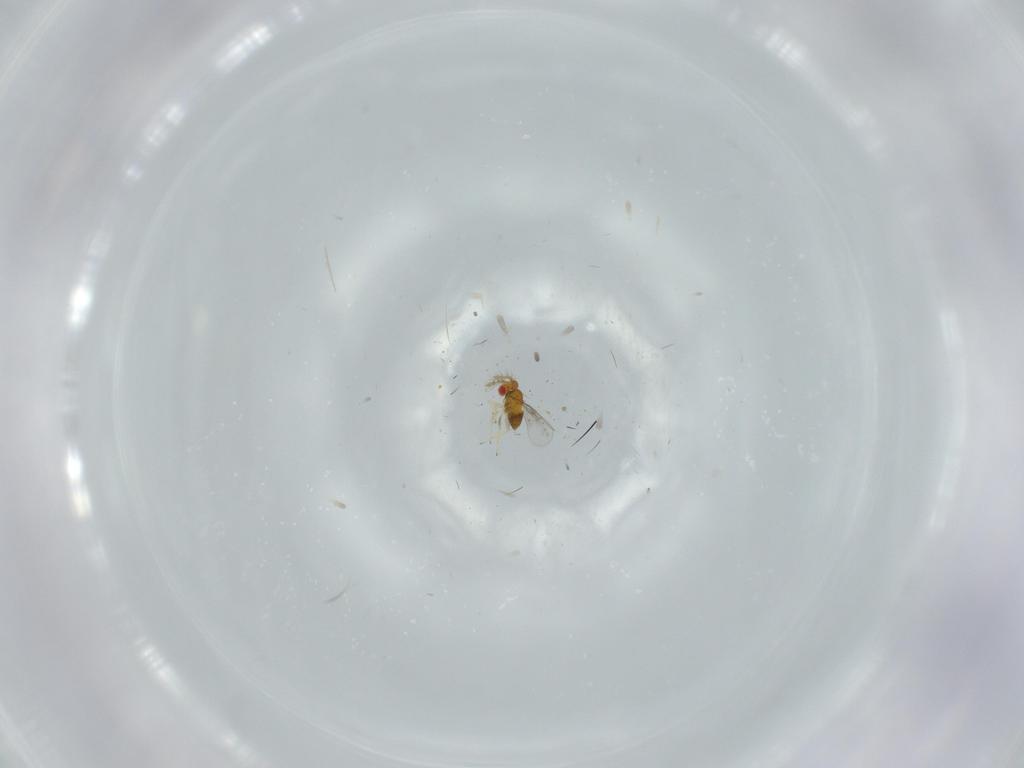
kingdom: Animalia
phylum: Arthropoda
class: Insecta
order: Hymenoptera
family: Trichogrammatidae
